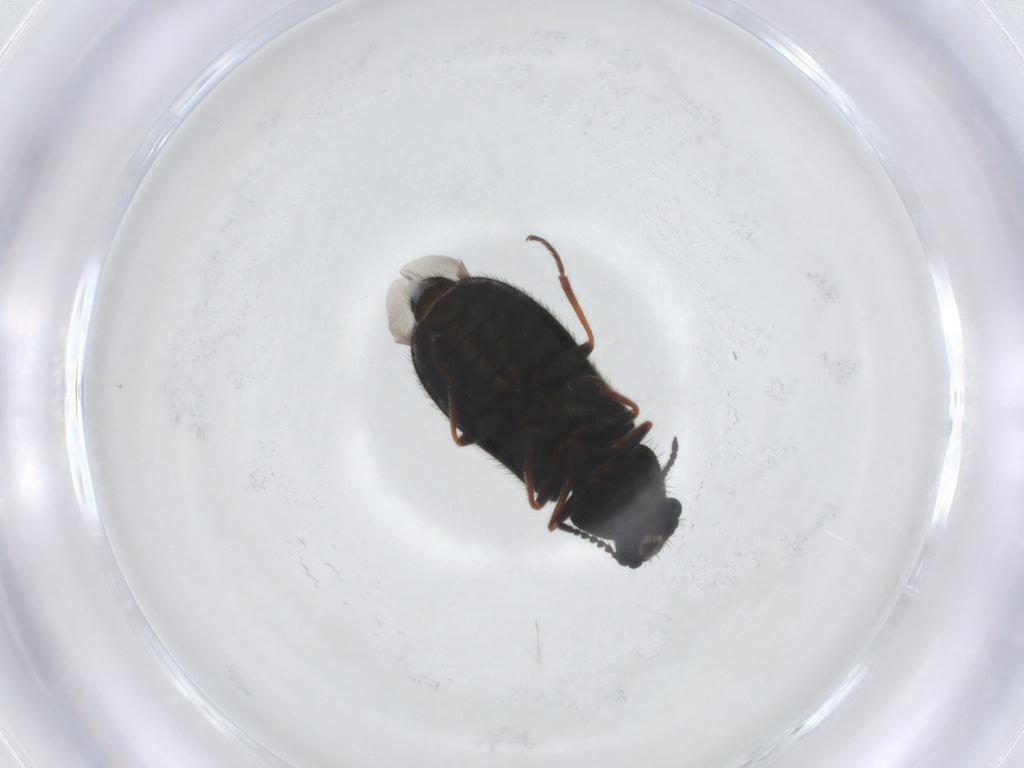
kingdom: Animalia
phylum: Arthropoda
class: Insecta
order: Coleoptera
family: Melyridae
